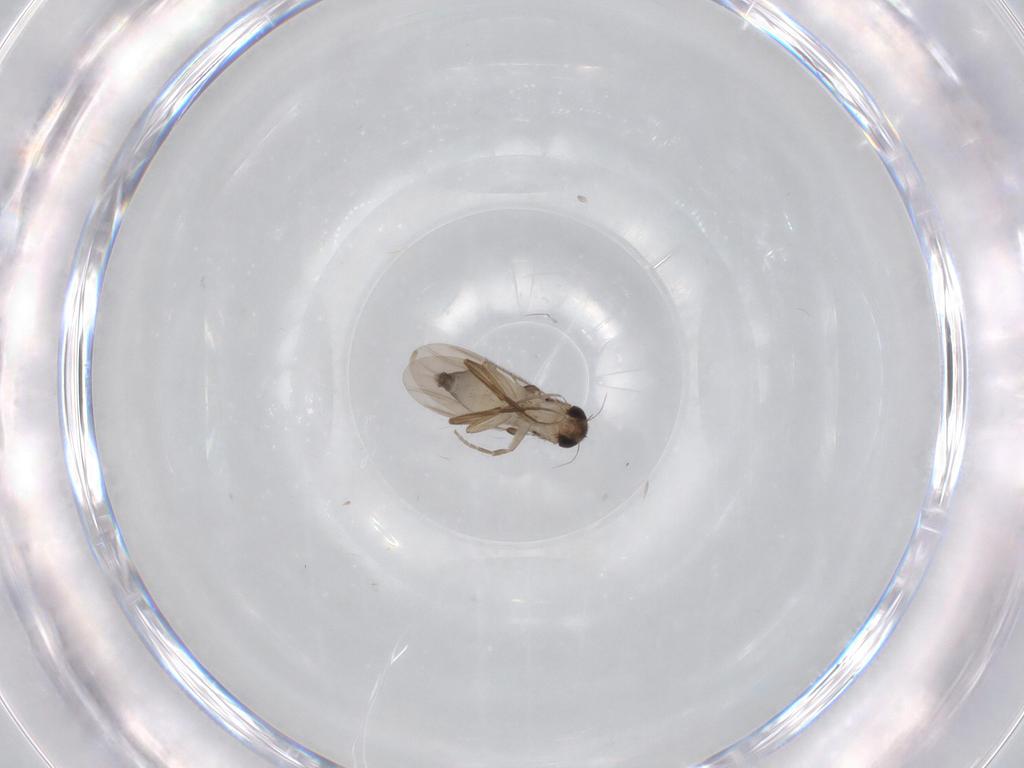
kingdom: Animalia
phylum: Arthropoda
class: Insecta
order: Diptera
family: Phoridae
